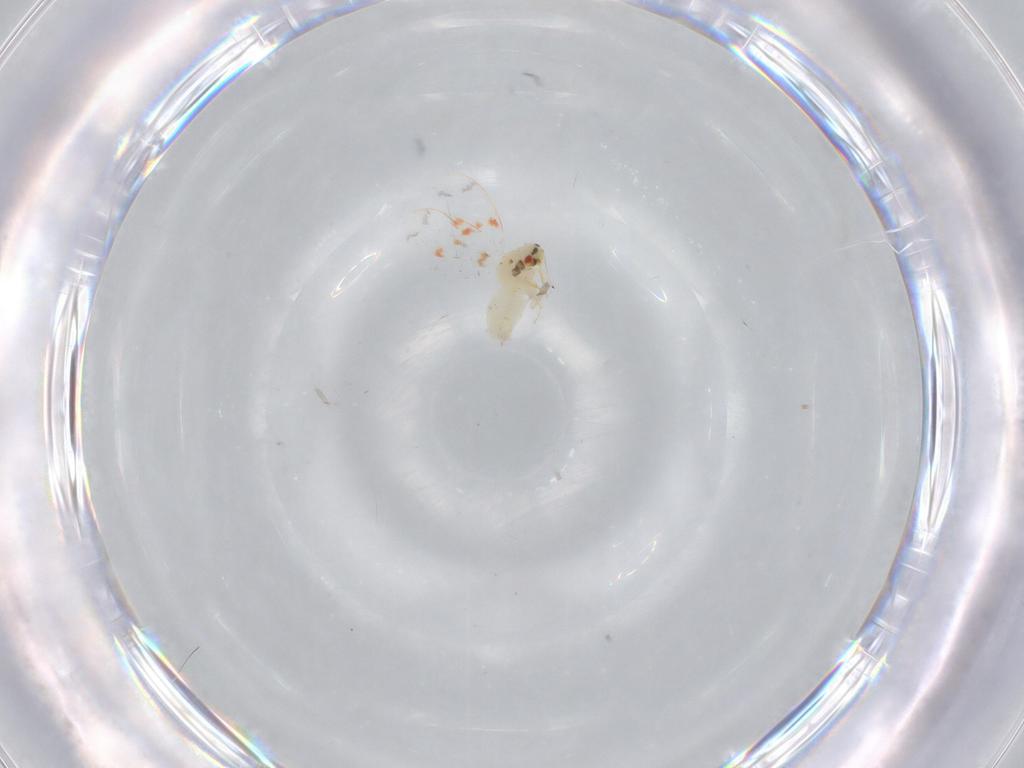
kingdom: Animalia
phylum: Arthropoda
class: Insecta
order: Hemiptera
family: Aleyrodidae
